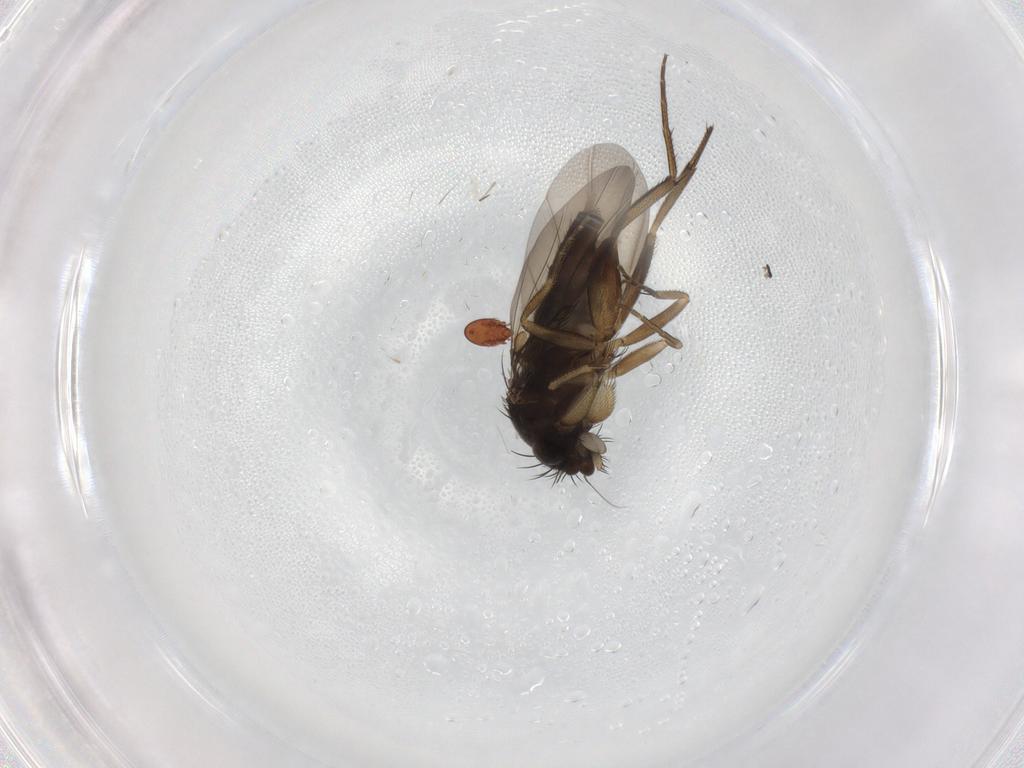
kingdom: Animalia
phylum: Arthropoda
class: Insecta
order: Diptera
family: Phoridae
